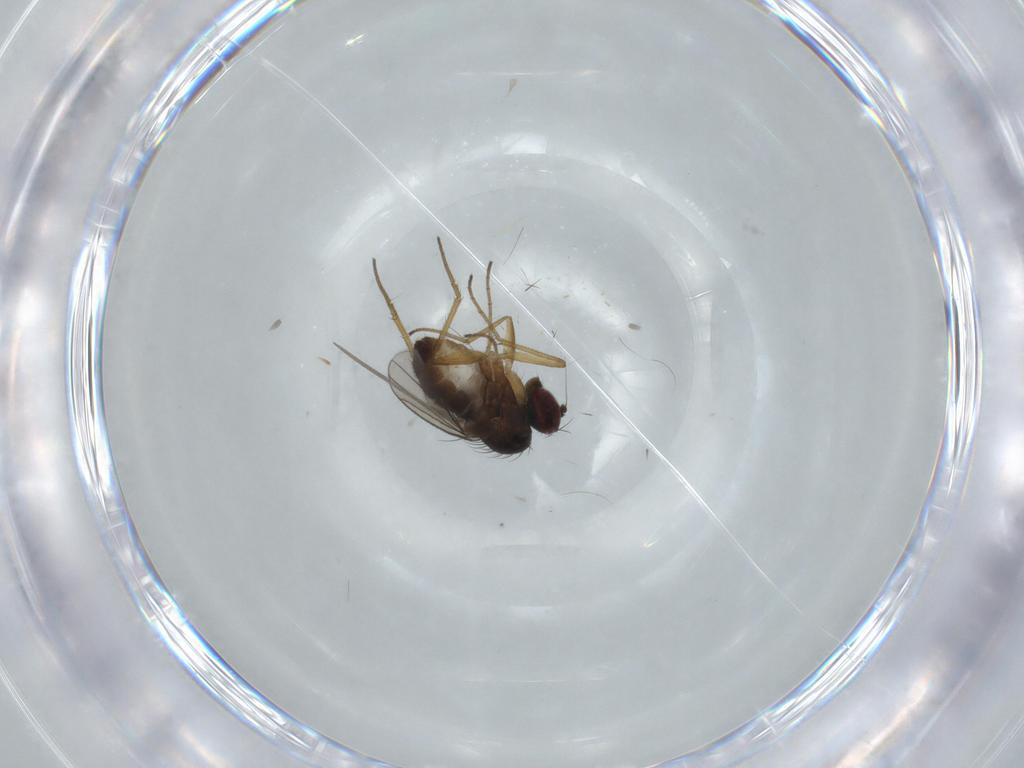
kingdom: Animalia
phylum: Arthropoda
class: Insecta
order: Diptera
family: Dolichopodidae
